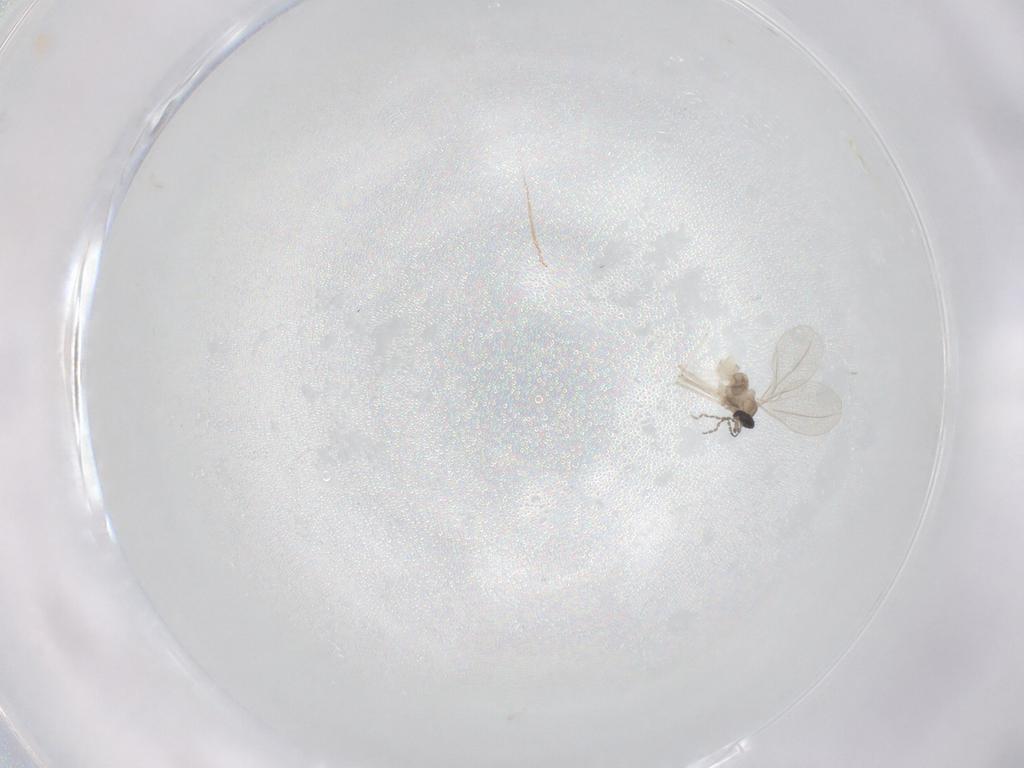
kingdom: Animalia
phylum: Arthropoda
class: Insecta
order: Diptera
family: Cecidomyiidae
